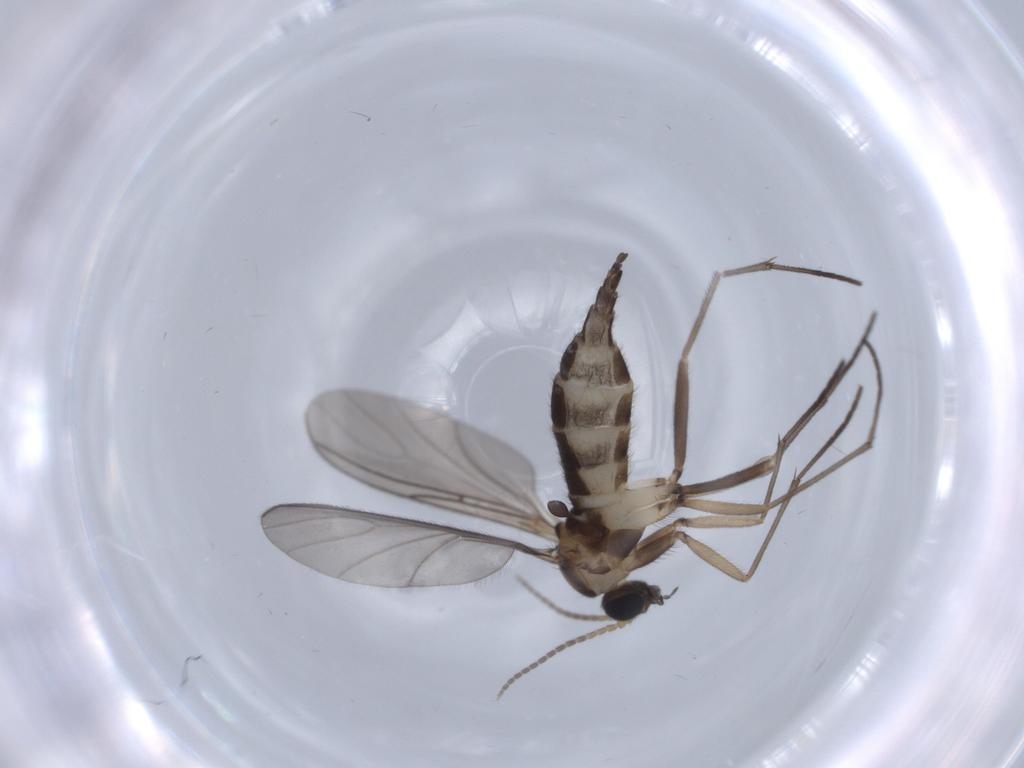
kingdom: Animalia
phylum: Arthropoda
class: Insecta
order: Diptera
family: Sciaridae
